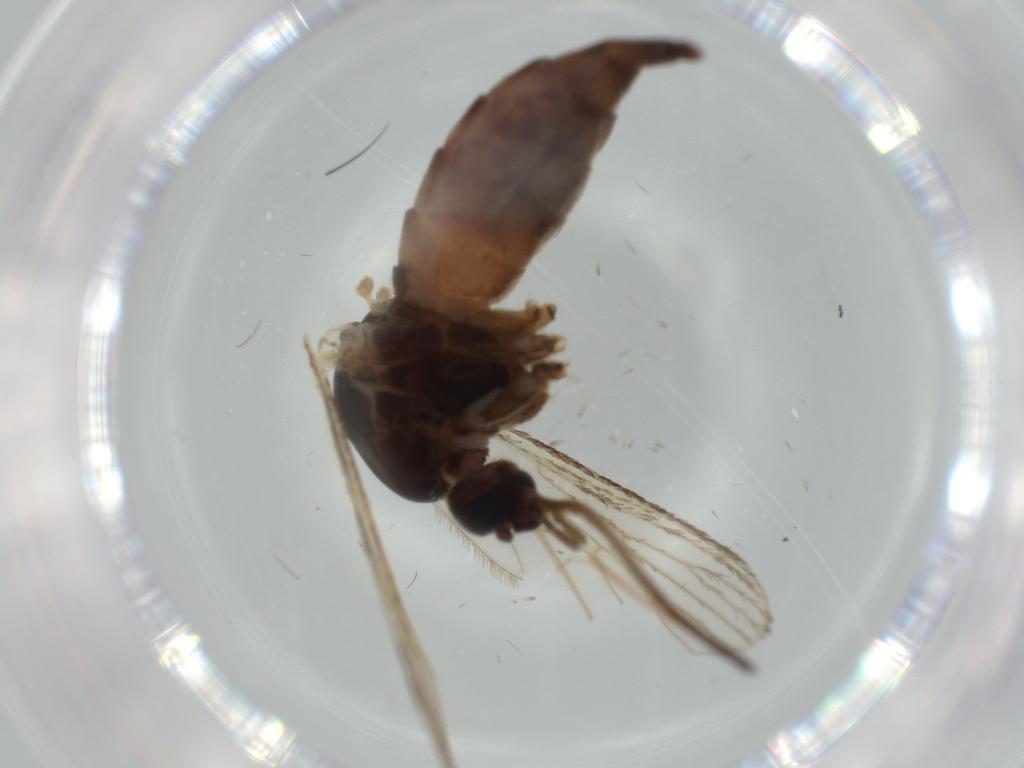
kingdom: Animalia
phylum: Arthropoda
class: Insecta
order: Diptera
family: Culicidae
